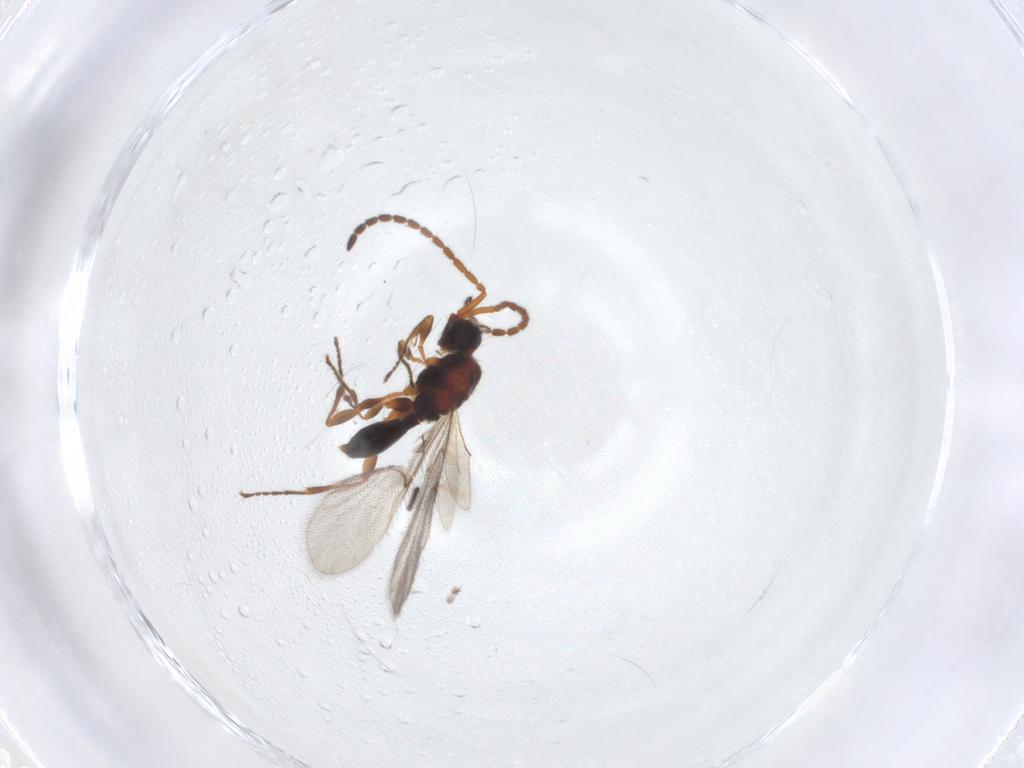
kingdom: Animalia
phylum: Arthropoda
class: Insecta
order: Hymenoptera
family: Diapriidae
